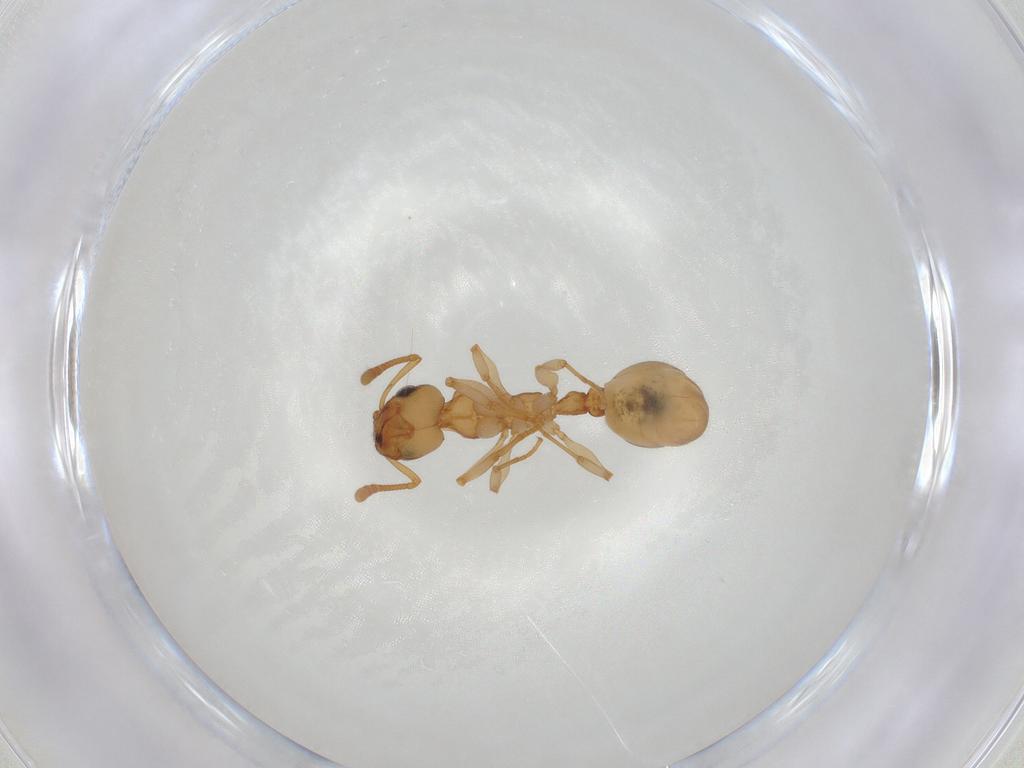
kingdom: Animalia
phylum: Arthropoda
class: Insecta
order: Hymenoptera
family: Formicidae
